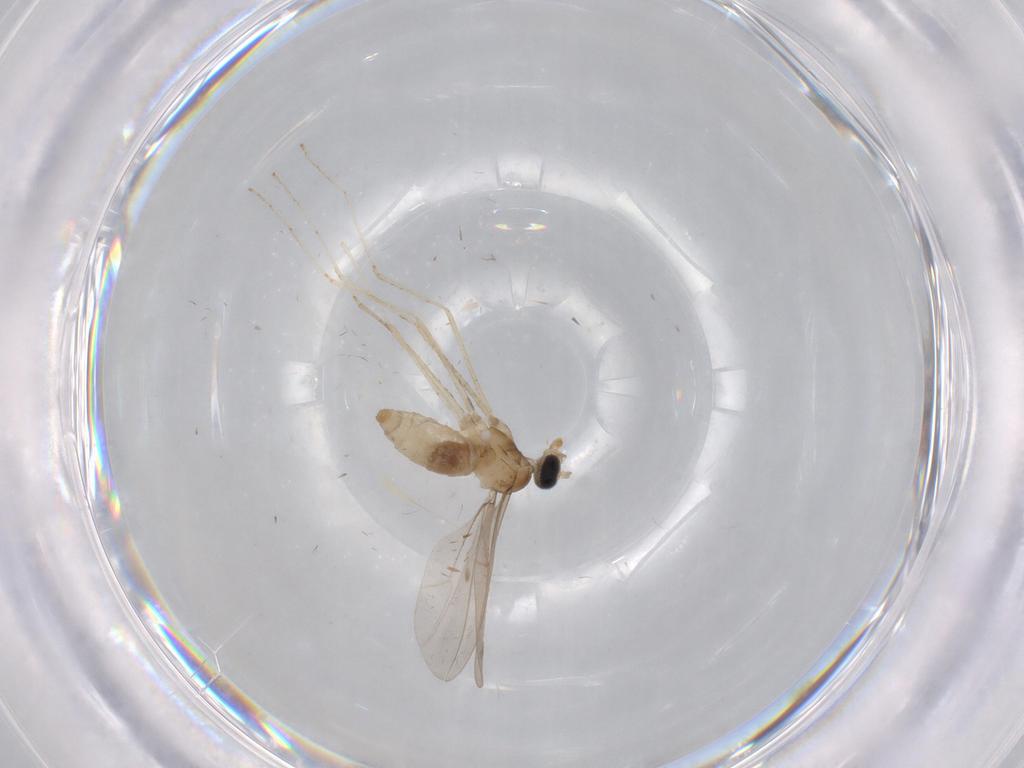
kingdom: Animalia
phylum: Arthropoda
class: Insecta
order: Diptera
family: Cecidomyiidae
